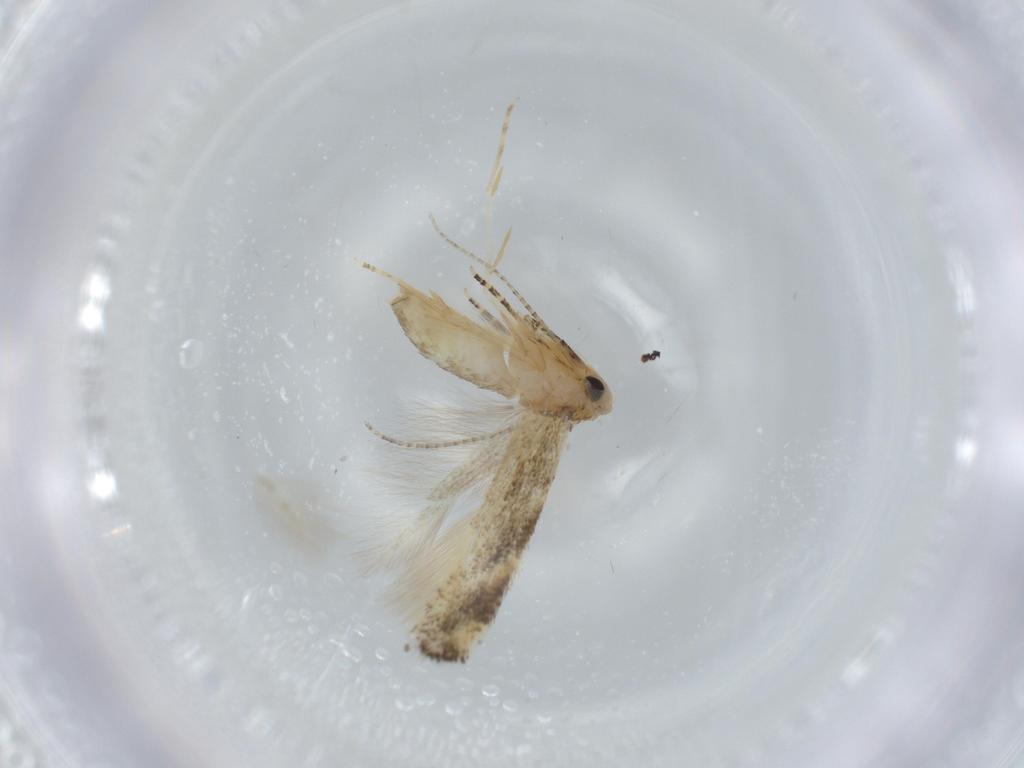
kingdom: Animalia
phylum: Arthropoda
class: Insecta
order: Lepidoptera
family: Bucculatricidae
